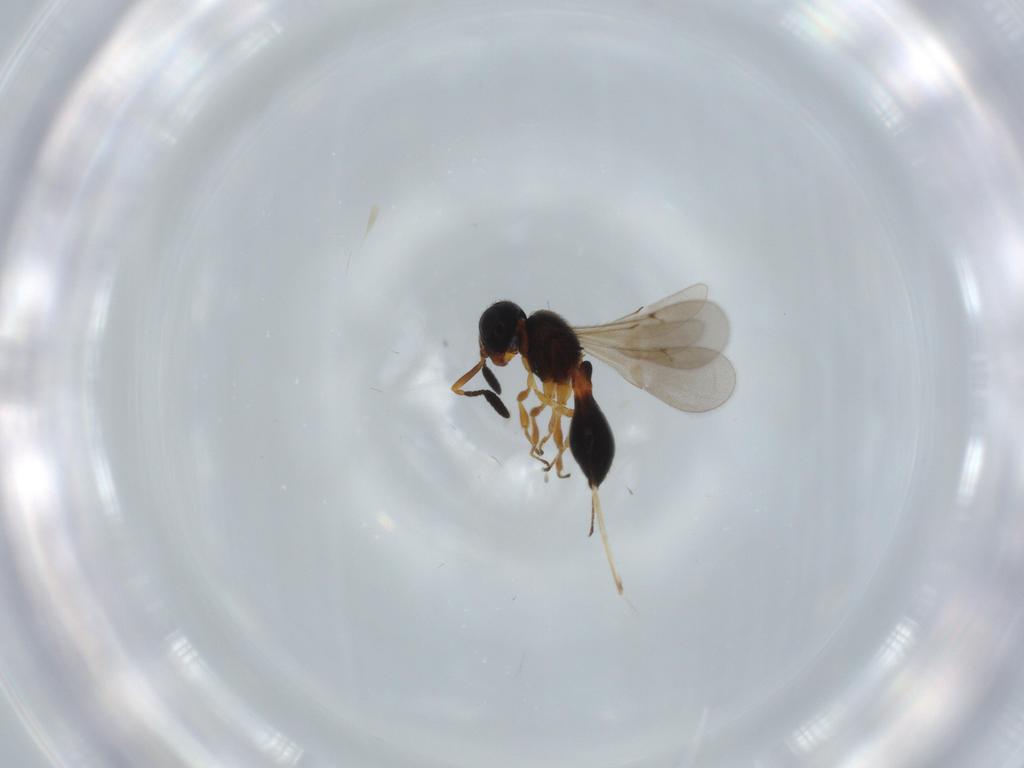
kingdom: Animalia
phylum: Arthropoda
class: Insecta
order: Hymenoptera
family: Scelionidae
